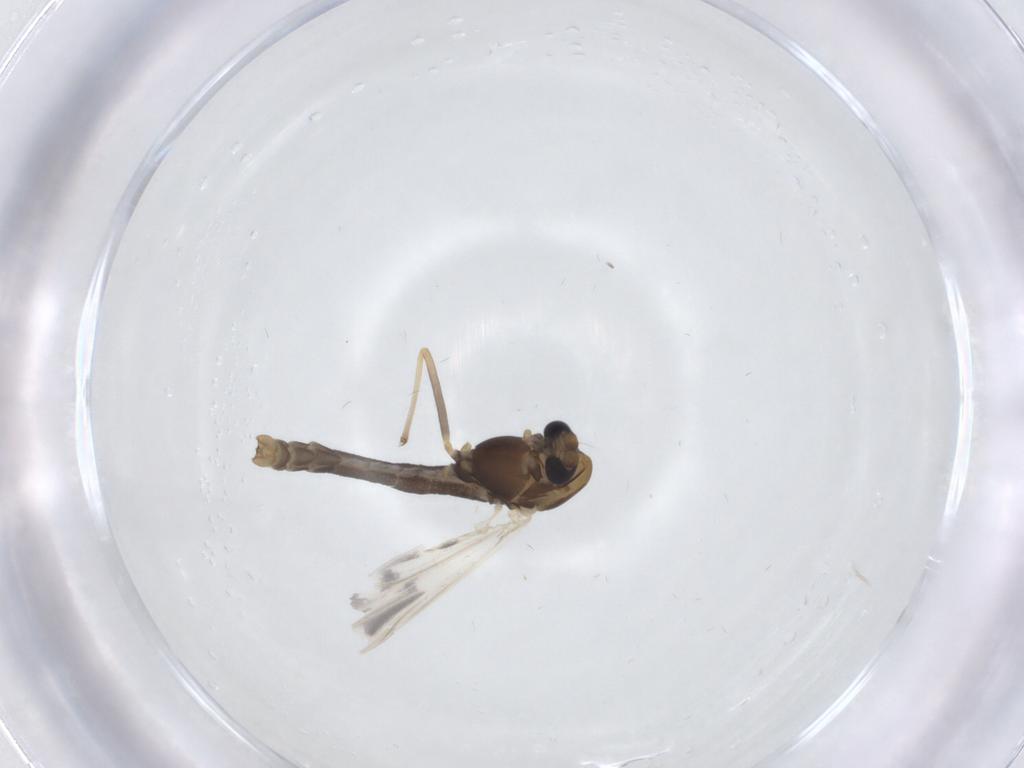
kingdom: Animalia
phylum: Arthropoda
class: Insecta
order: Diptera
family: Chironomidae
